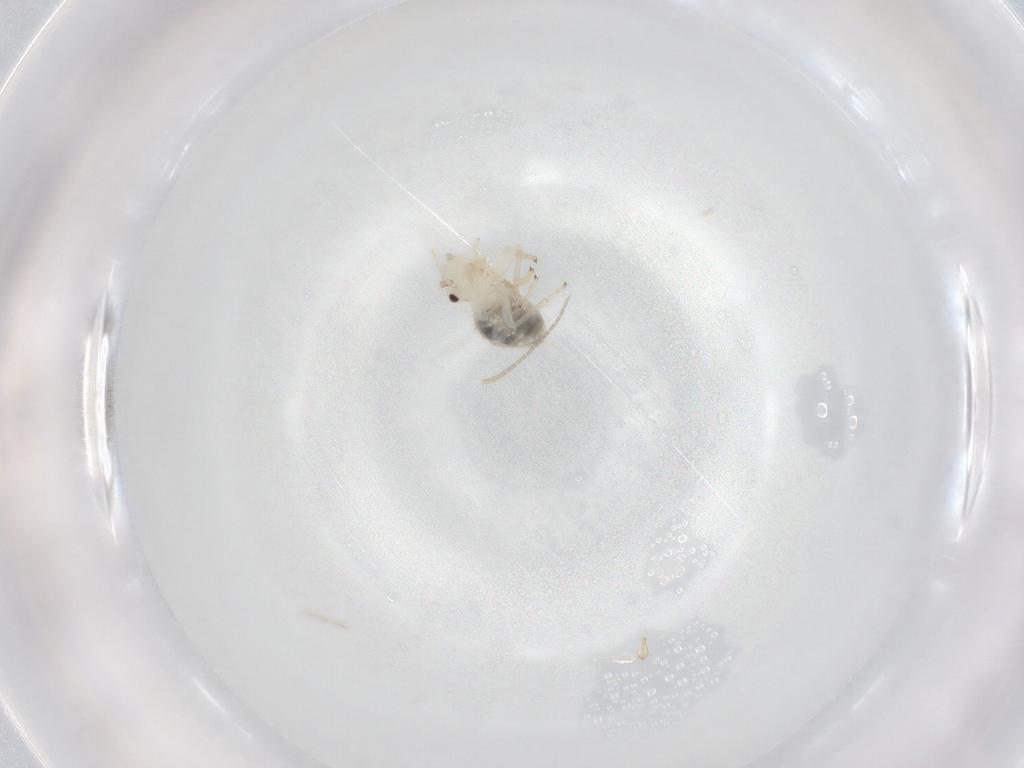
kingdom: Animalia
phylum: Arthropoda
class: Insecta
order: Psocodea
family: Philotarsidae
